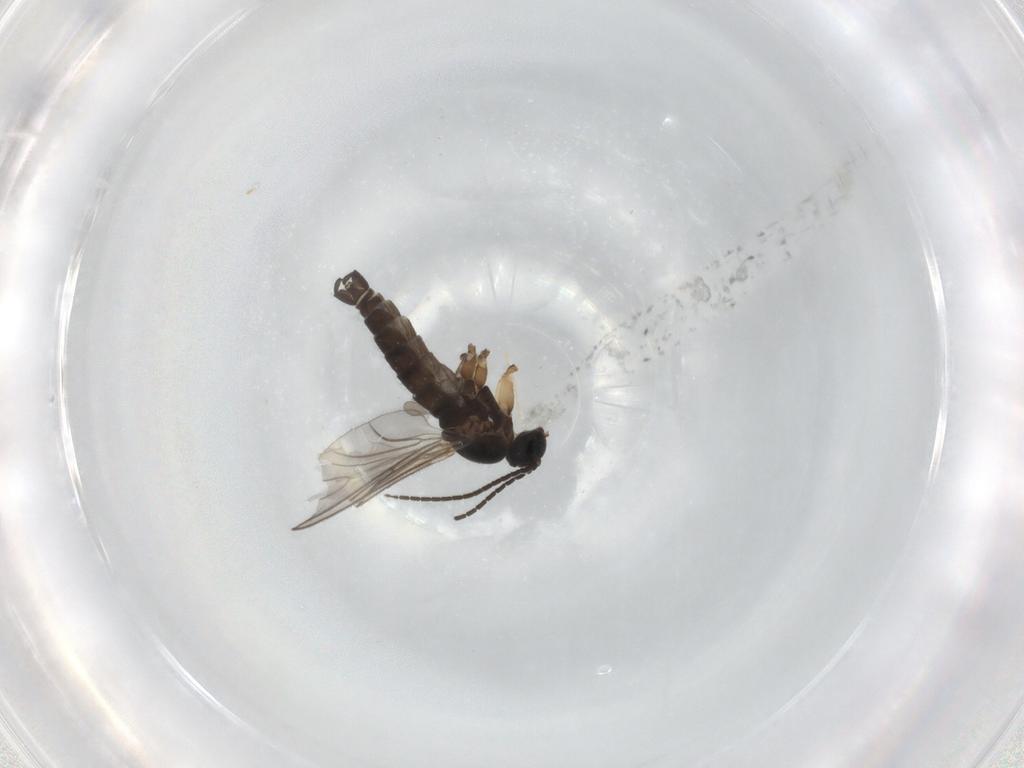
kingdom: Animalia
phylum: Arthropoda
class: Insecta
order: Diptera
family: Sciaridae
